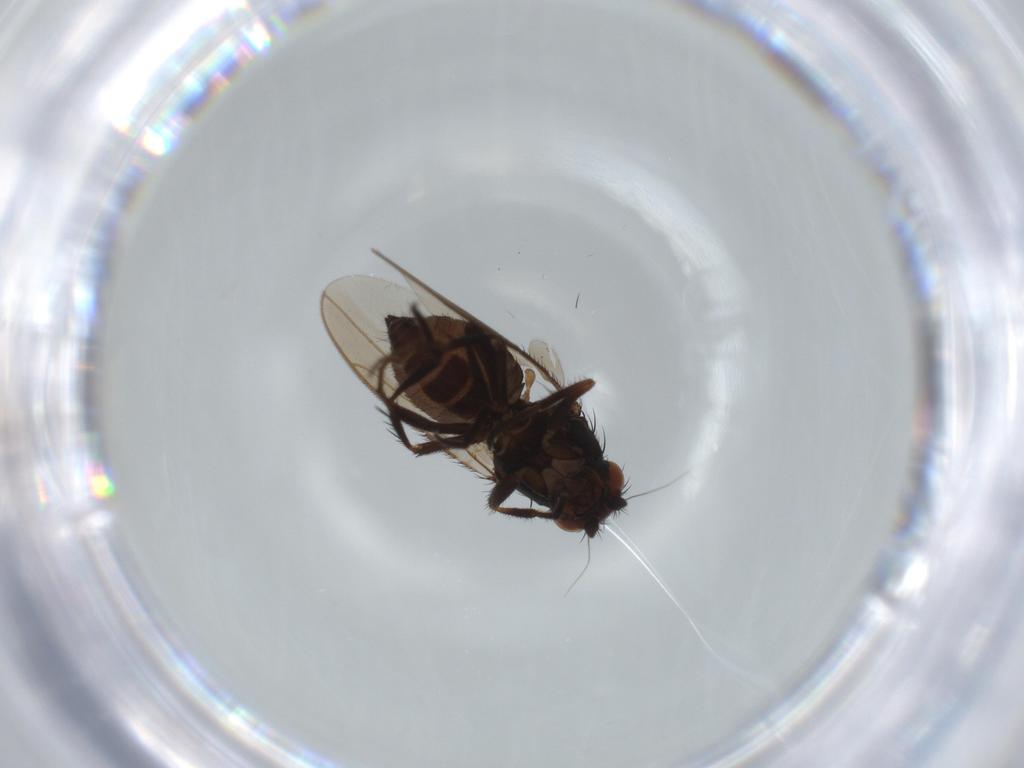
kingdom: Animalia
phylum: Arthropoda
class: Insecta
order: Diptera
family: Sphaeroceridae
